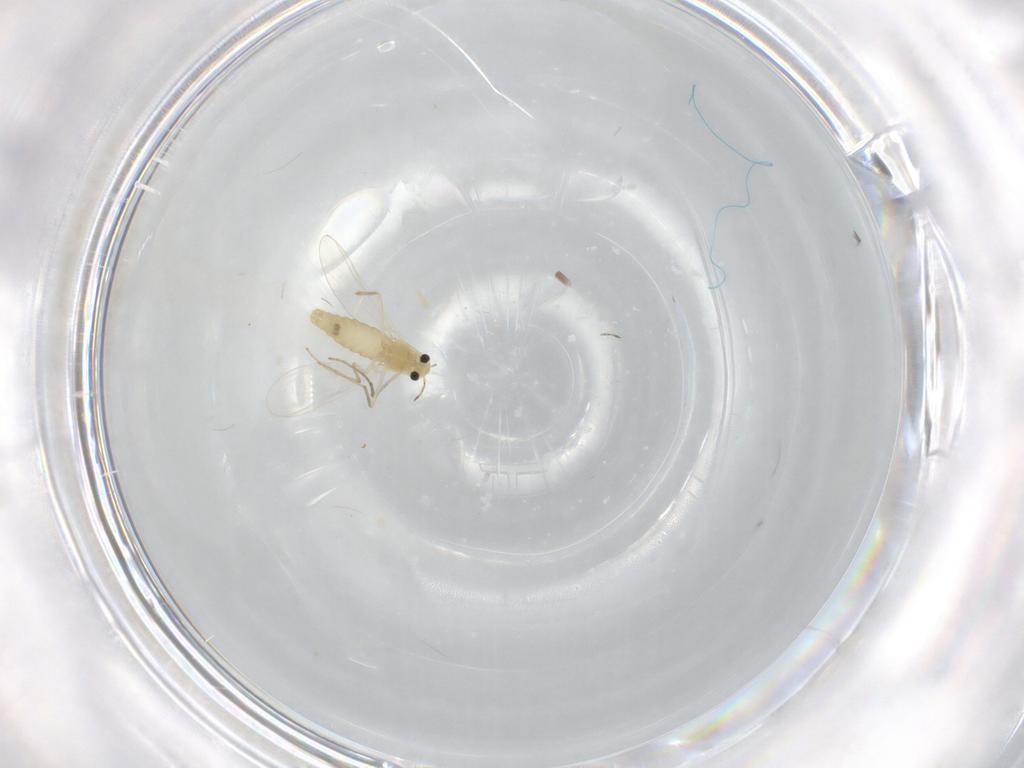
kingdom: Animalia
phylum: Arthropoda
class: Insecta
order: Diptera
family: Chironomidae
